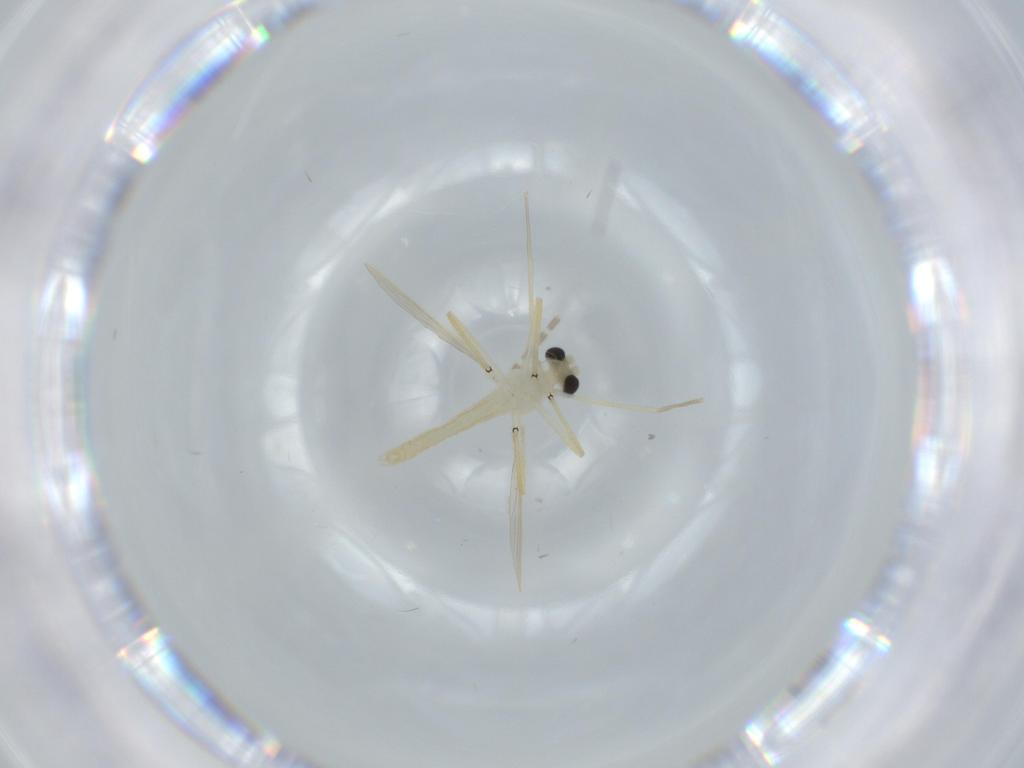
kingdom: Animalia
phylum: Arthropoda
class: Insecta
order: Diptera
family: Chironomidae
